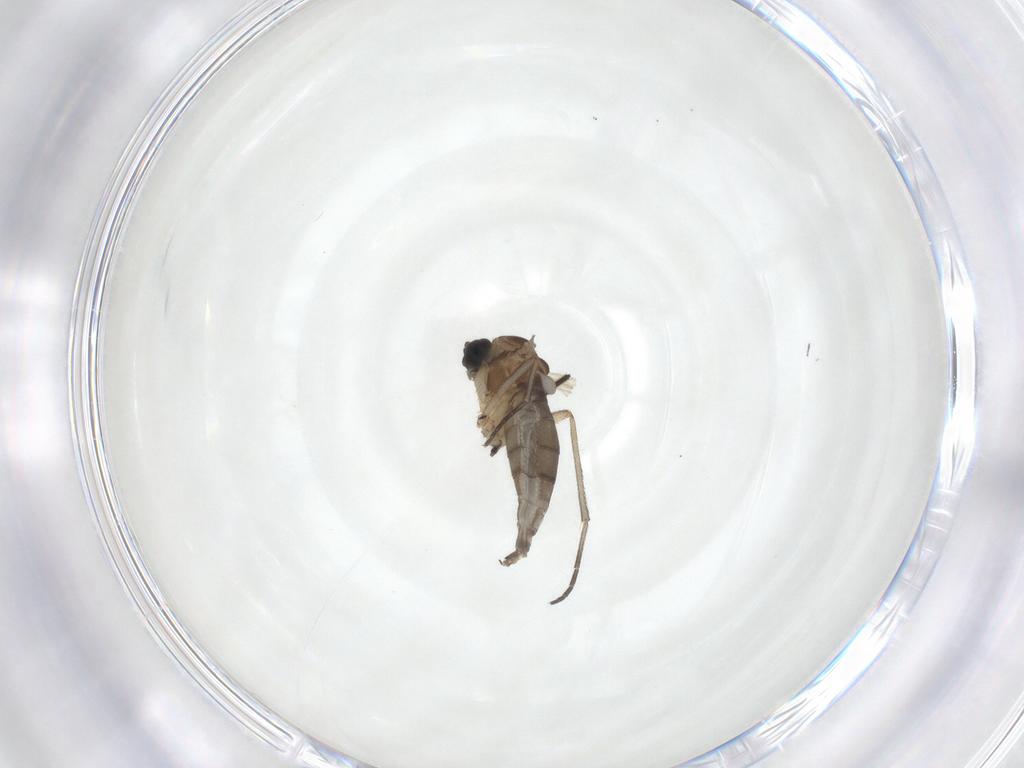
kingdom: Animalia
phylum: Arthropoda
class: Insecta
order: Diptera
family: Sciaridae
